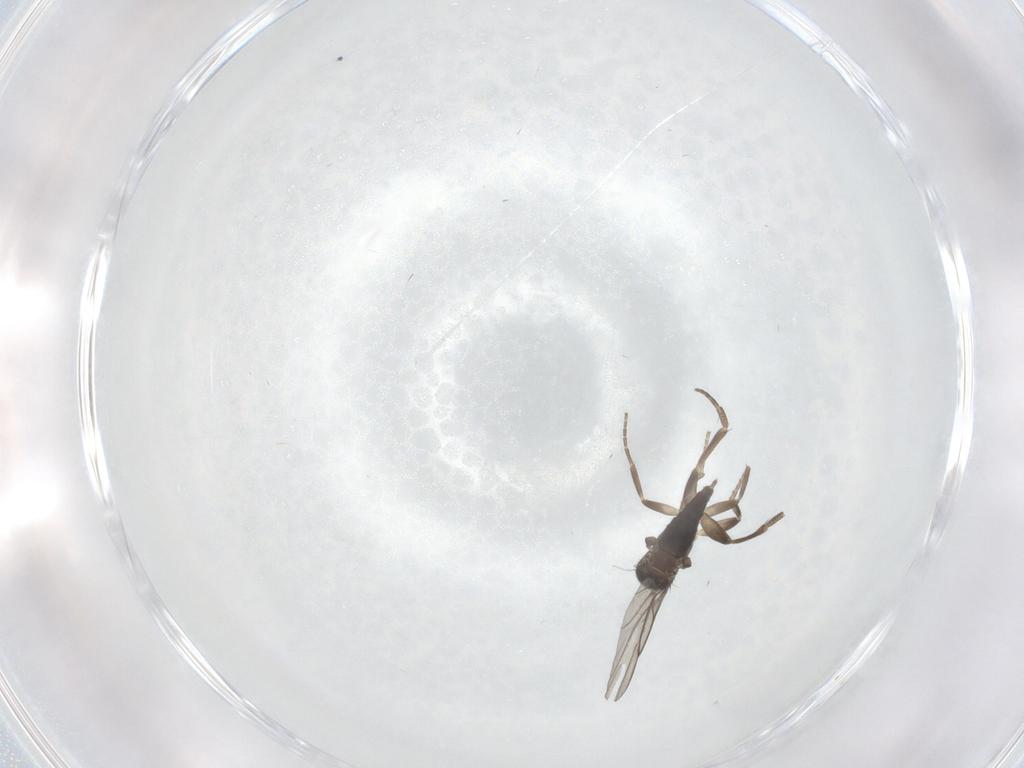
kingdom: Animalia
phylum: Arthropoda
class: Insecta
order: Diptera
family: Phoridae
